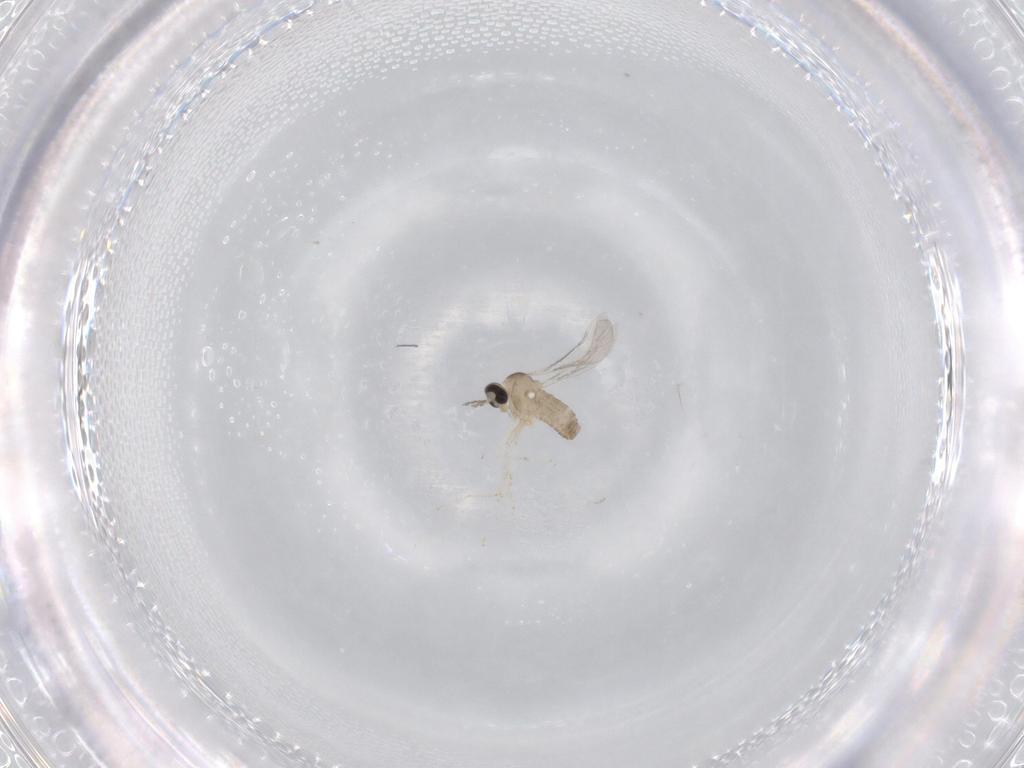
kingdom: Animalia
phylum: Arthropoda
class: Insecta
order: Diptera
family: Cecidomyiidae
